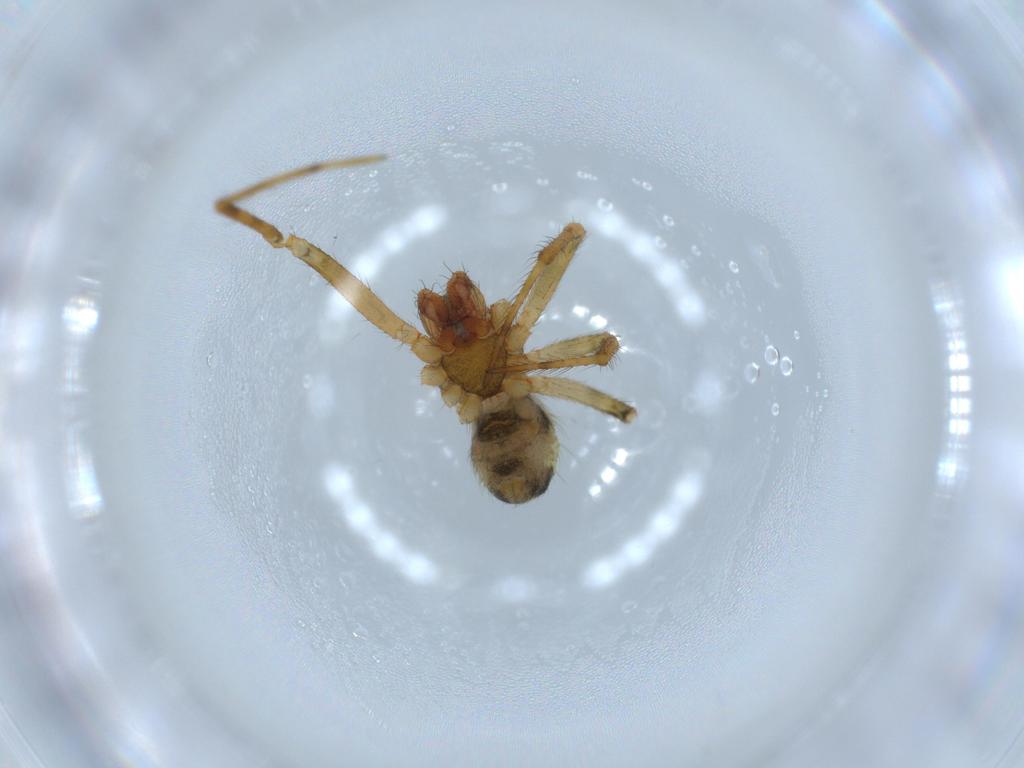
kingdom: Animalia
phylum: Arthropoda
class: Arachnida
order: Araneae
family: Theridiidae
